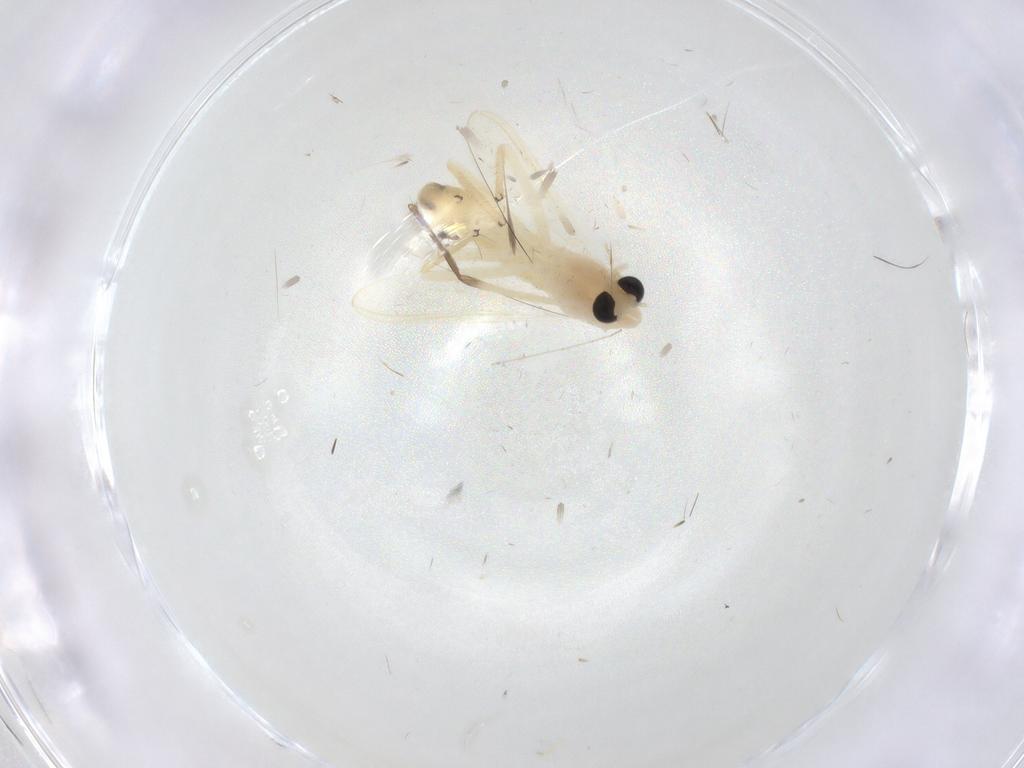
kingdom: Animalia
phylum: Arthropoda
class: Insecta
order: Diptera
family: Chironomidae
